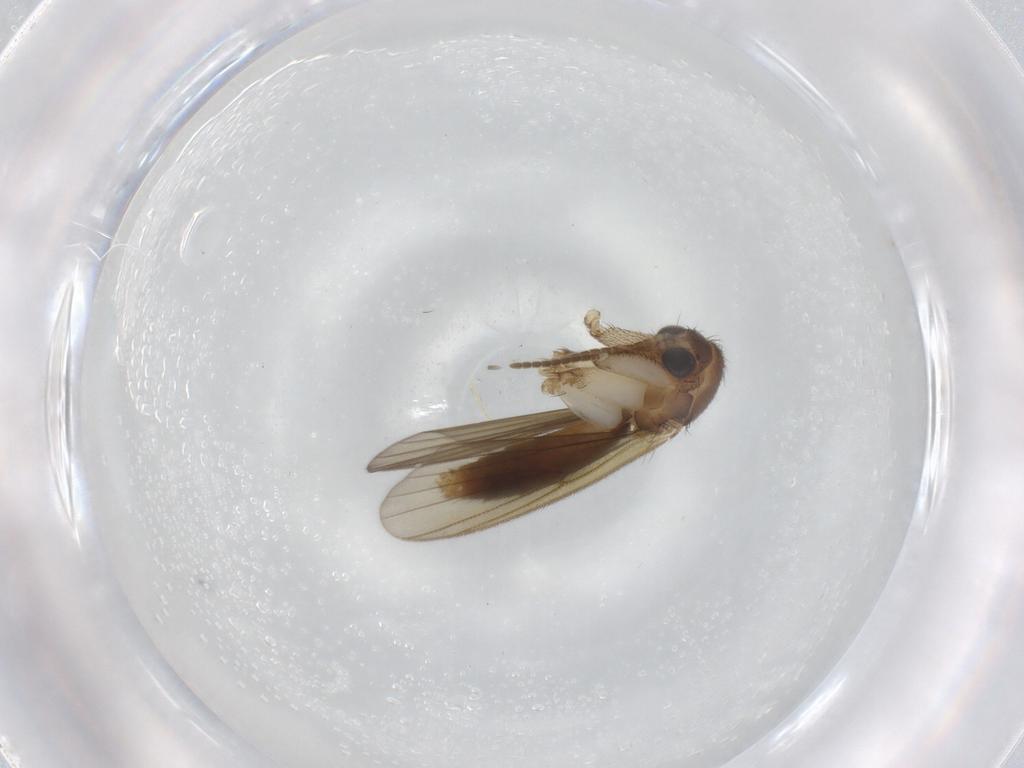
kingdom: Animalia
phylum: Arthropoda
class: Insecta
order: Diptera
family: Mycetophilidae
